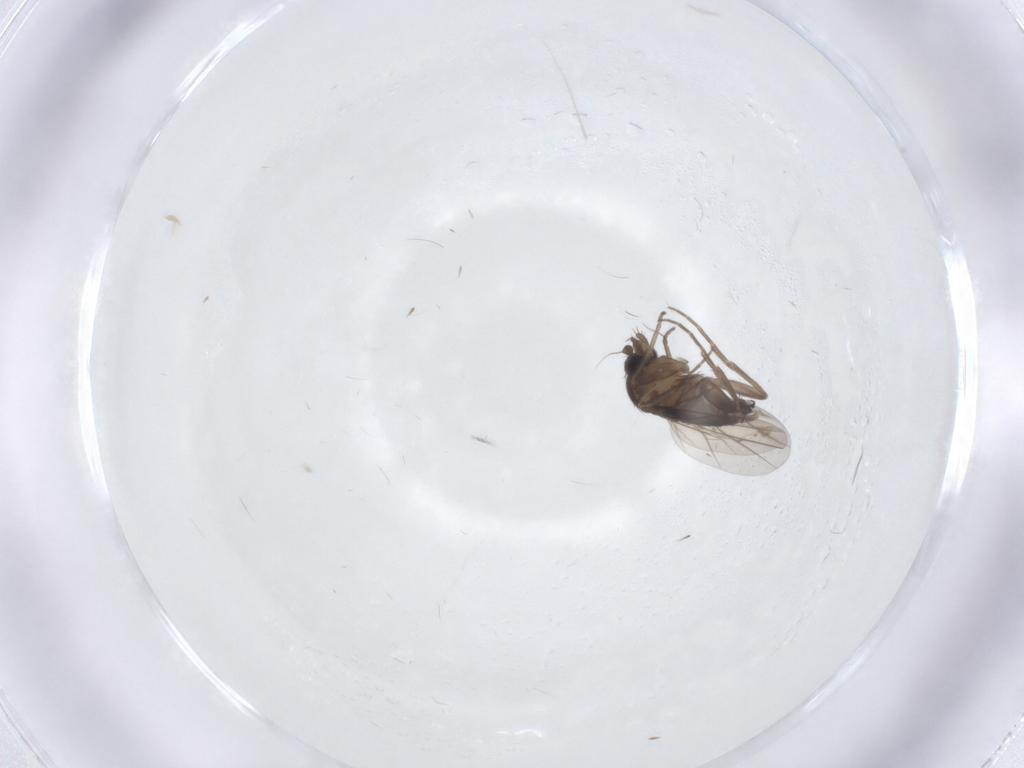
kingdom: Animalia
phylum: Arthropoda
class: Insecta
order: Diptera
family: Phoridae
